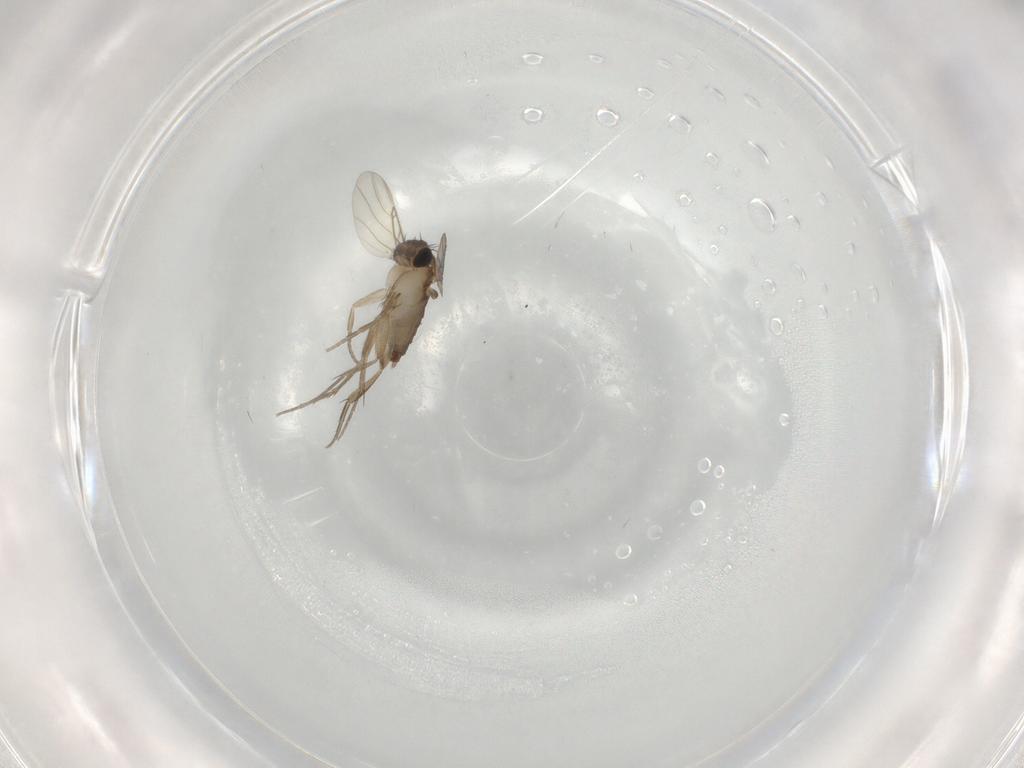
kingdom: Animalia
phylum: Arthropoda
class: Insecta
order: Diptera
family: Phoridae
